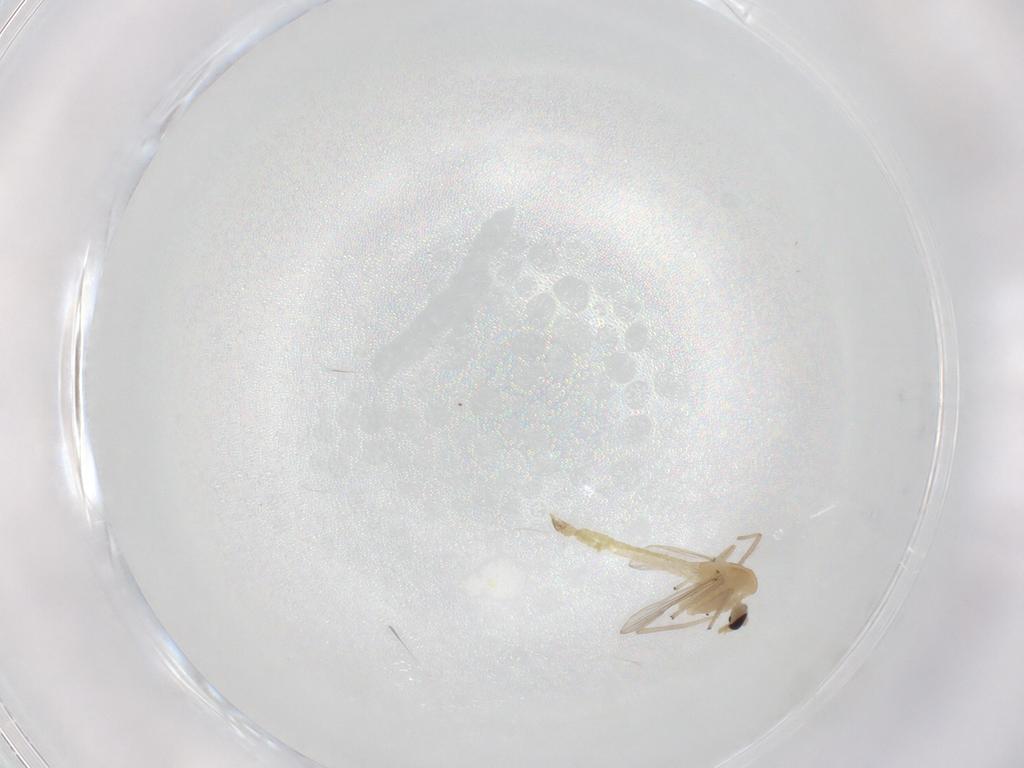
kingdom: Animalia
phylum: Arthropoda
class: Insecta
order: Diptera
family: Chironomidae
